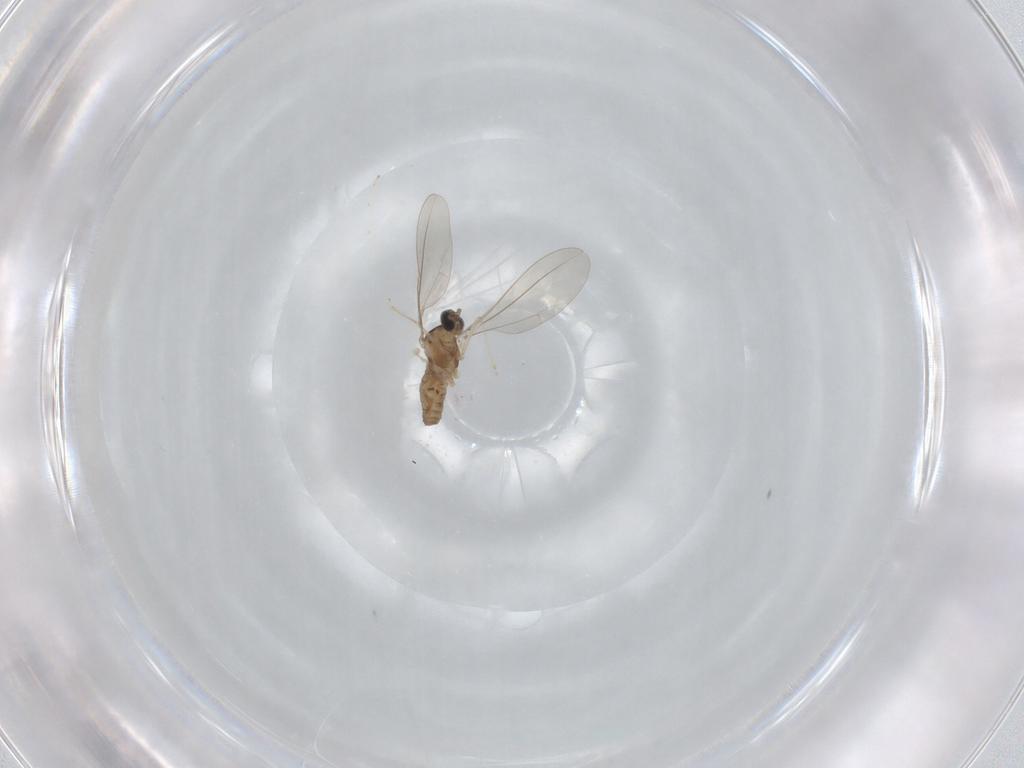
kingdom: Animalia
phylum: Arthropoda
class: Insecta
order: Diptera
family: Cecidomyiidae
